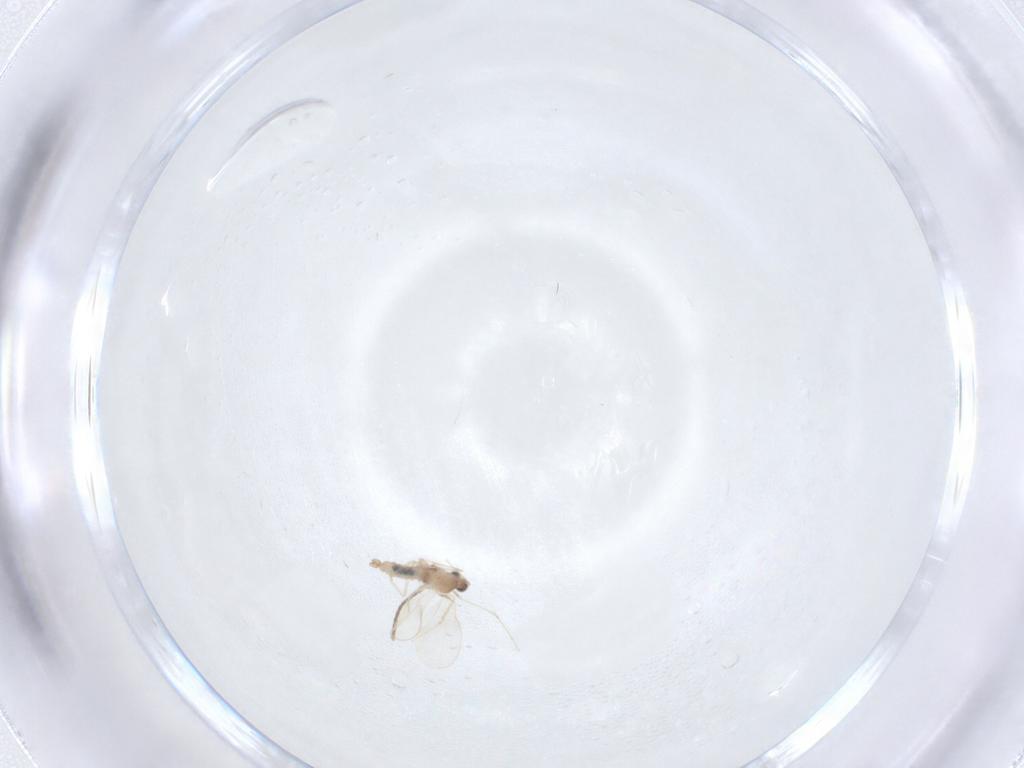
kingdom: Animalia
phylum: Arthropoda
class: Insecta
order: Diptera
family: Sciaridae
